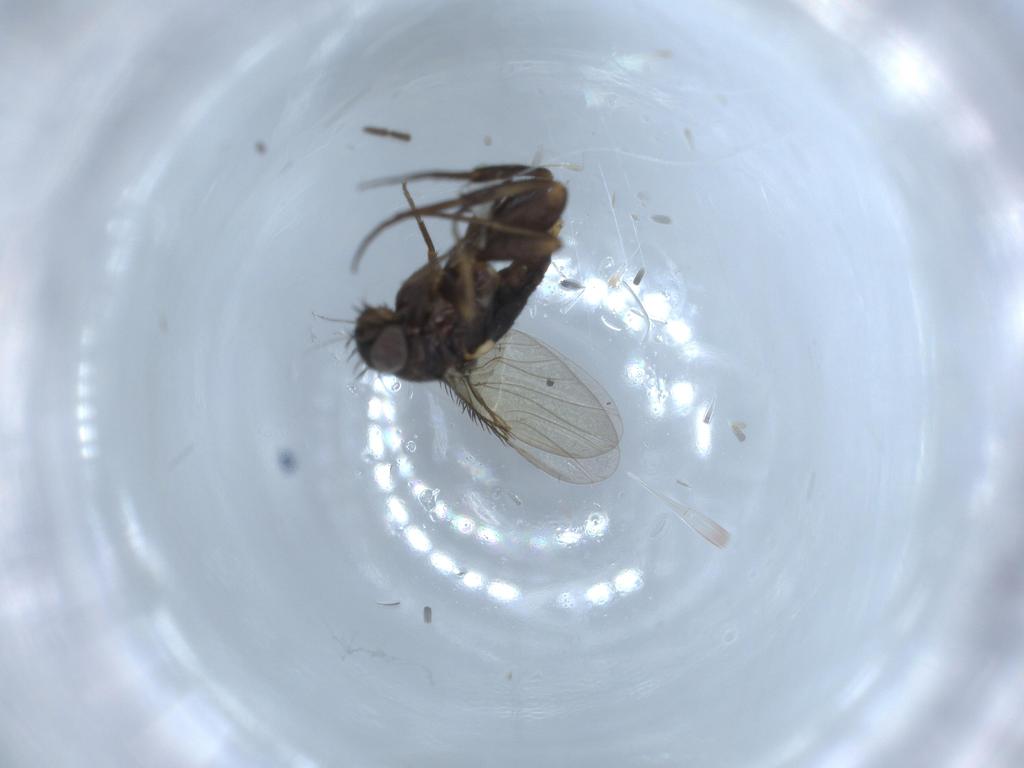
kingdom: Animalia
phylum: Arthropoda
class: Insecta
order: Diptera
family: Phoridae
